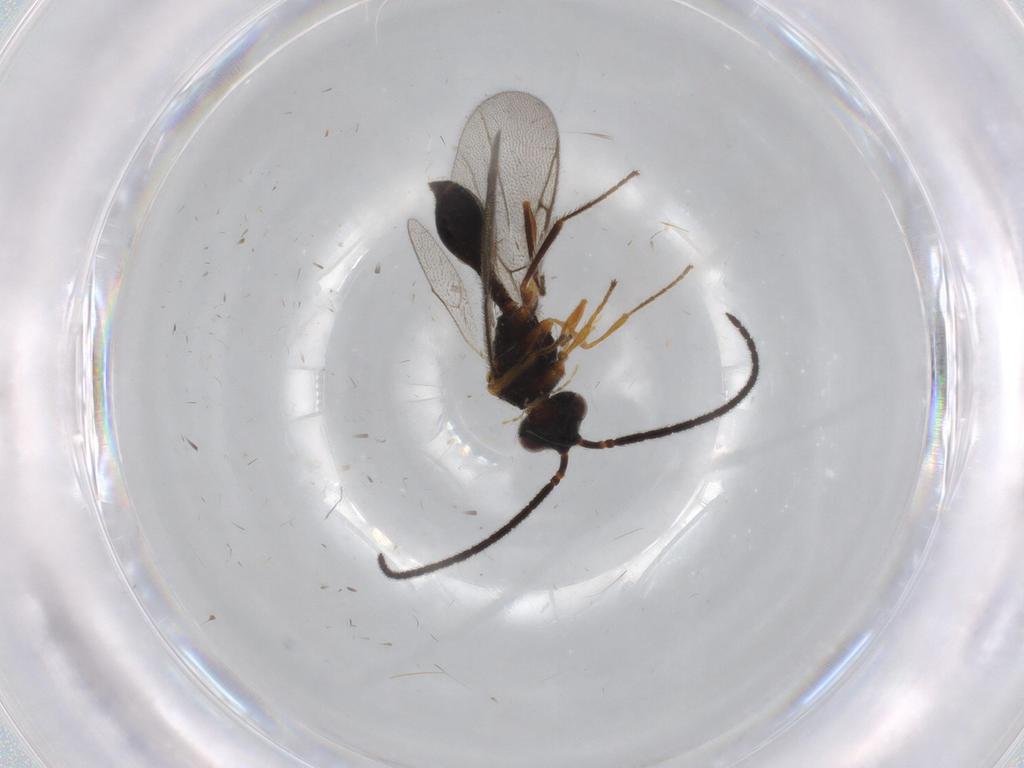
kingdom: Animalia
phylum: Arthropoda
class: Insecta
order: Hymenoptera
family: Diapriidae
